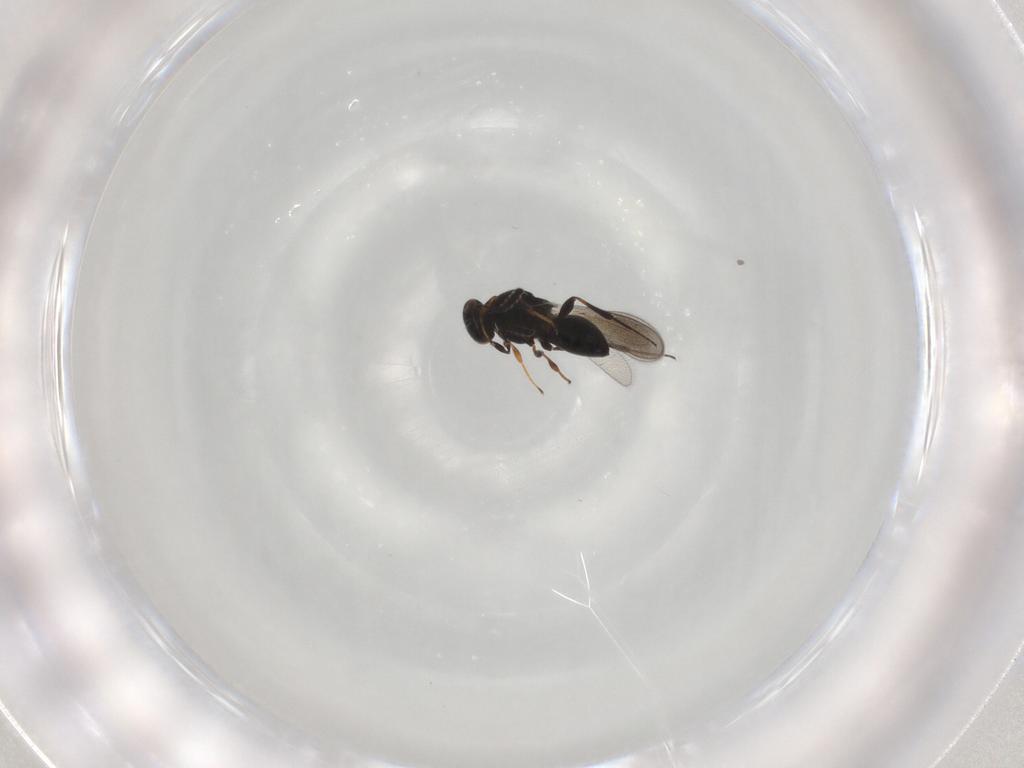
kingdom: Animalia
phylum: Arthropoda
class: Insecta
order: Hymenoptera
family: Platygastridae
